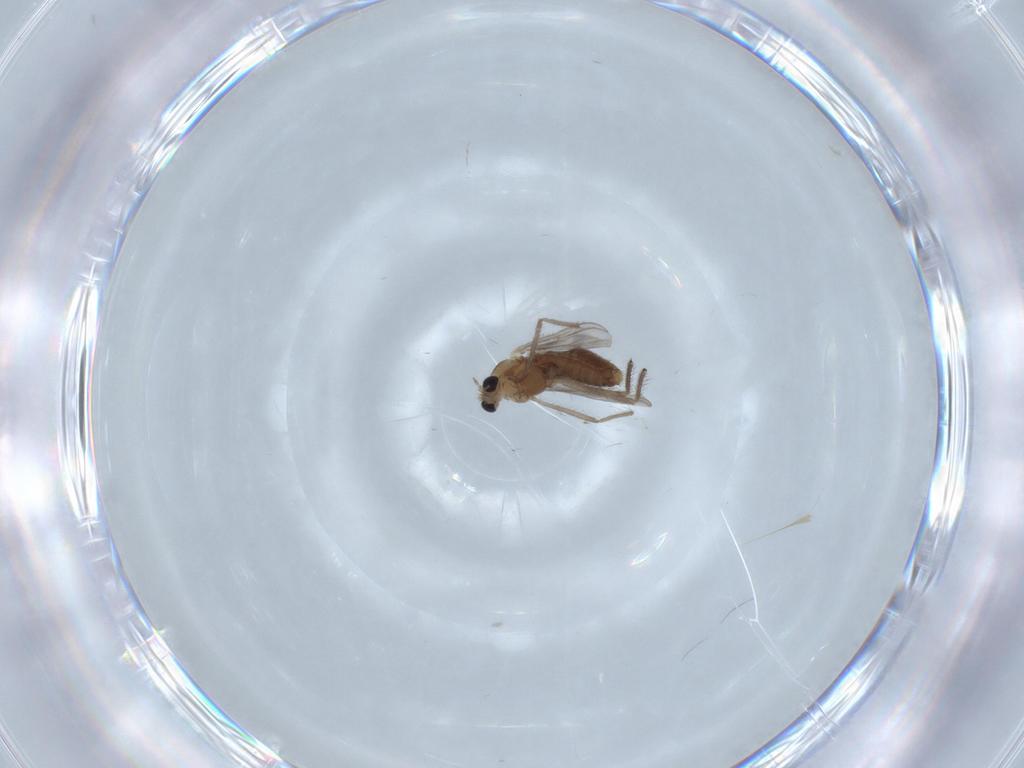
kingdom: Animalia
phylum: Arthropoda
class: Insecta
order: Diptera
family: Chironomidae
